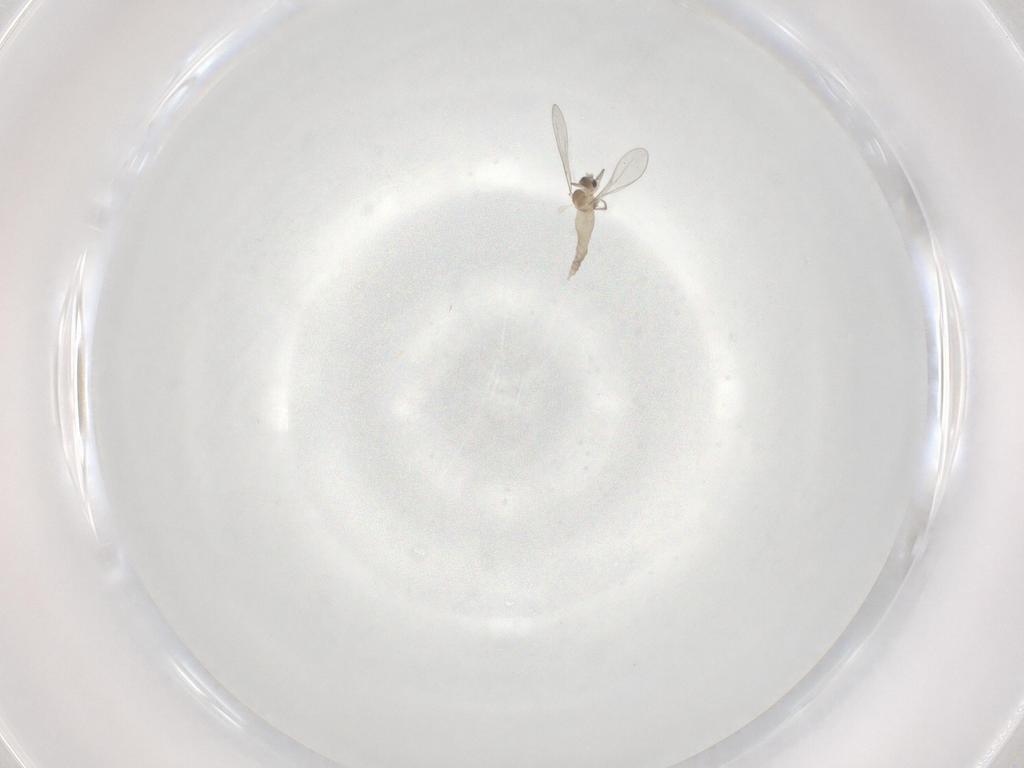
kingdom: Animalia
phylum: Arthropoda
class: Insecta
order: Diptera
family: Cecidomyiidae
